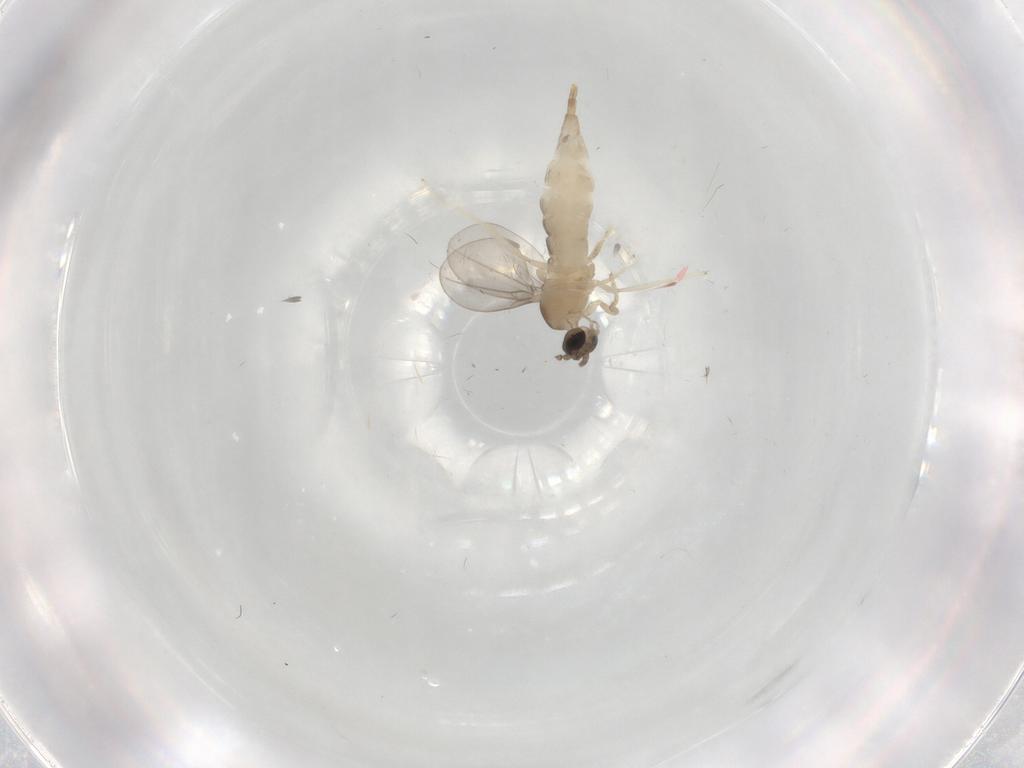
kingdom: Animalia
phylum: Arthropoda
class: Insecta
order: Diptera
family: Cecidomyiidae
